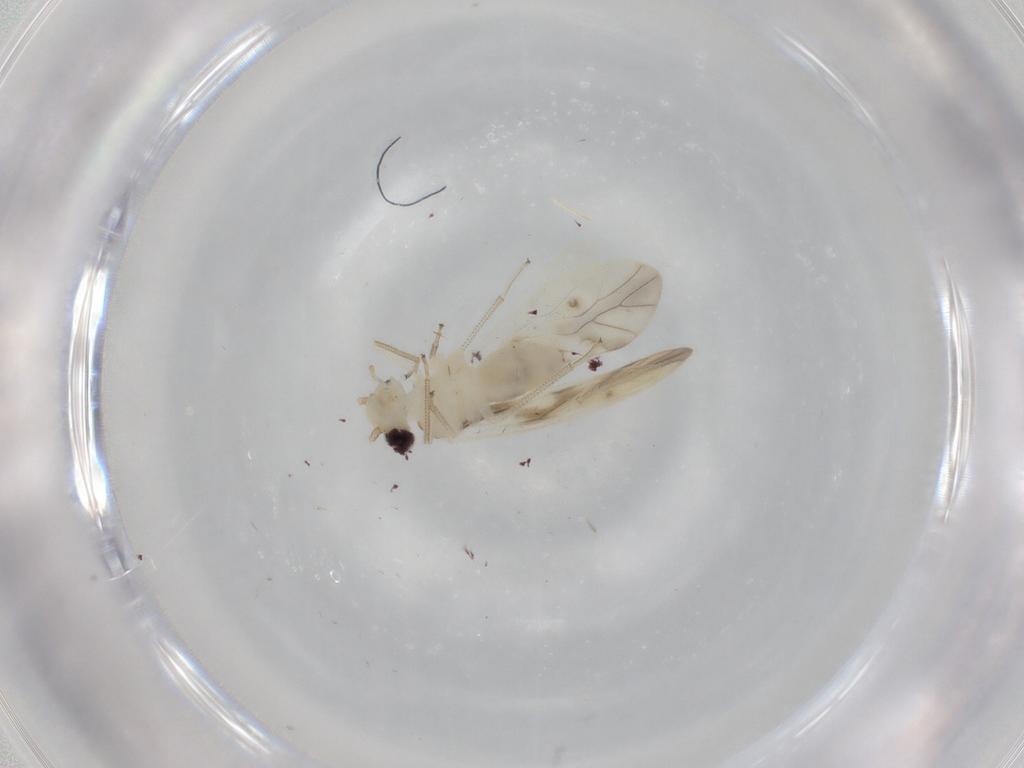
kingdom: Animalia
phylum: Arthropoda
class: Insecta
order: Psocodea
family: Caeciliusidae
